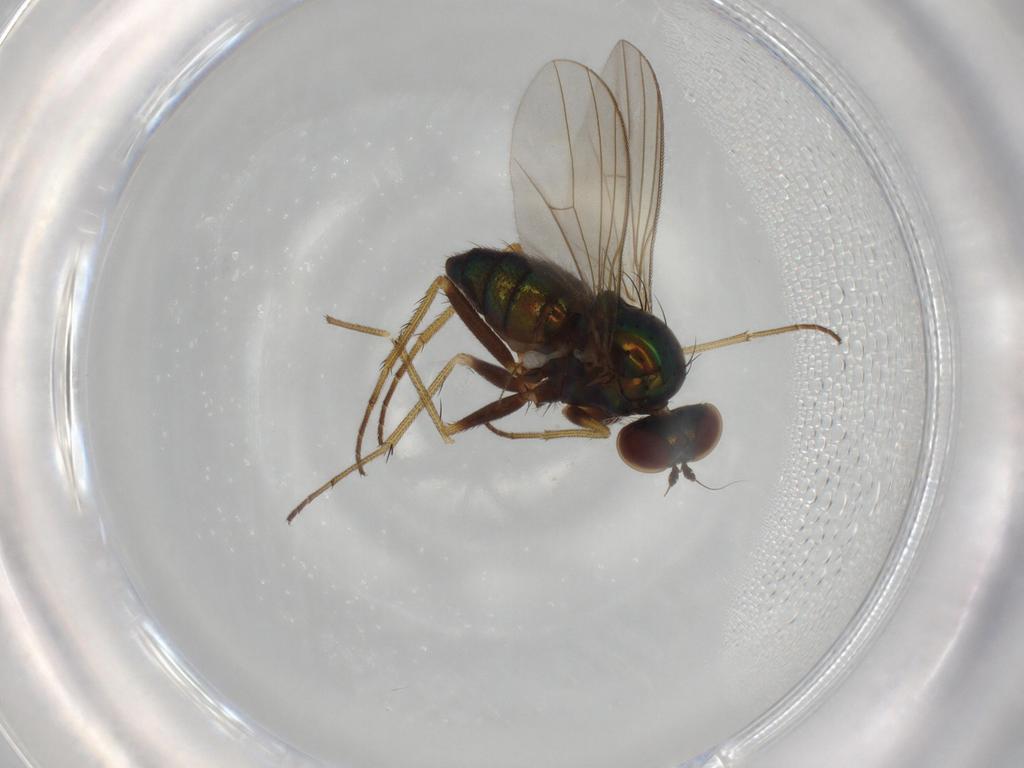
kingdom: Animalia
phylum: Arthropoda
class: Insecta
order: Diptera
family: Dolichopodidae
